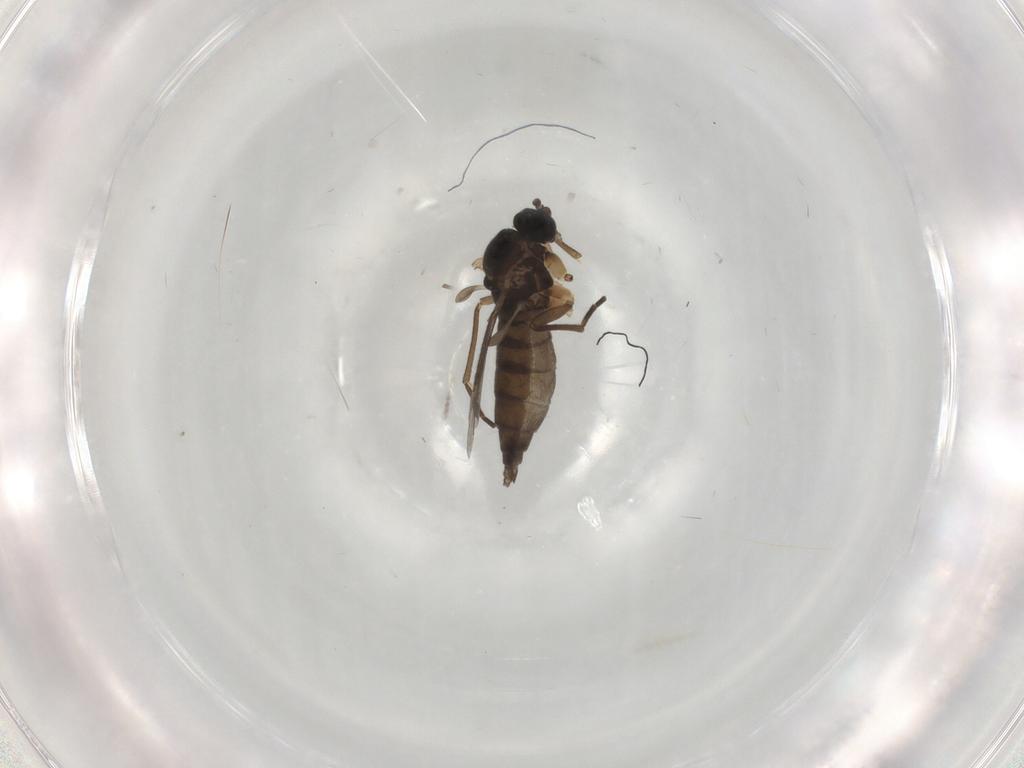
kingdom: Animalia
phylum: Arthropoda
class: Insecta
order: Diptera
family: Sciaridae
